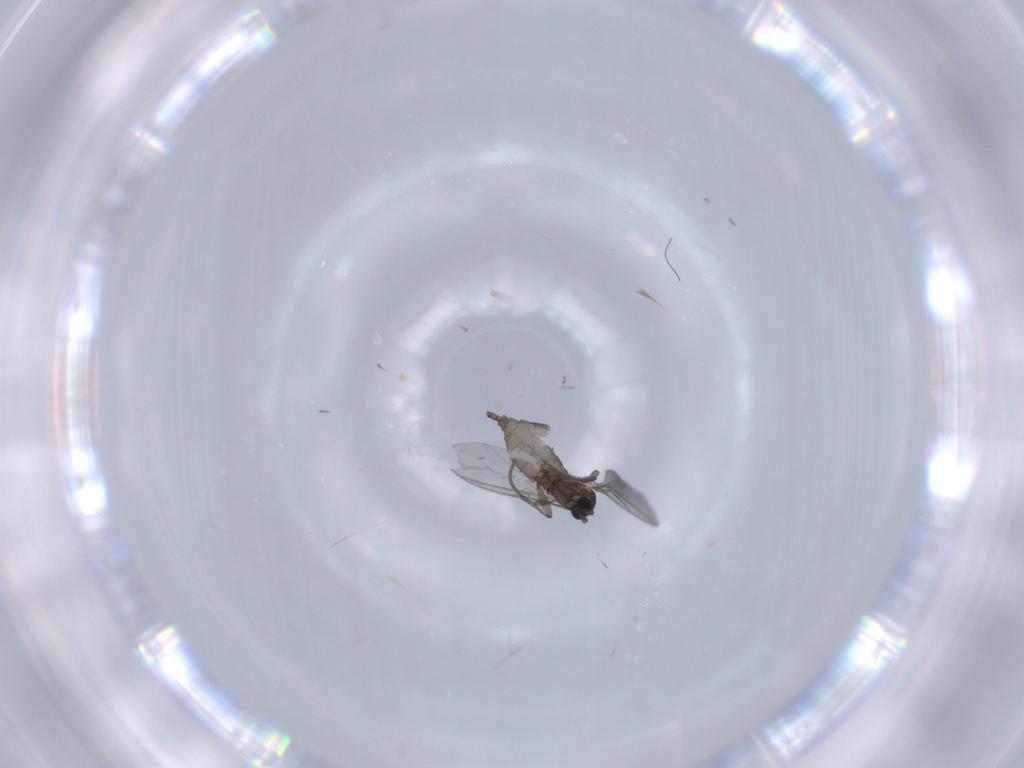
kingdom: Animalia
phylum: Arthropoda
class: Insecta
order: Diptera
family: Sciaridae
